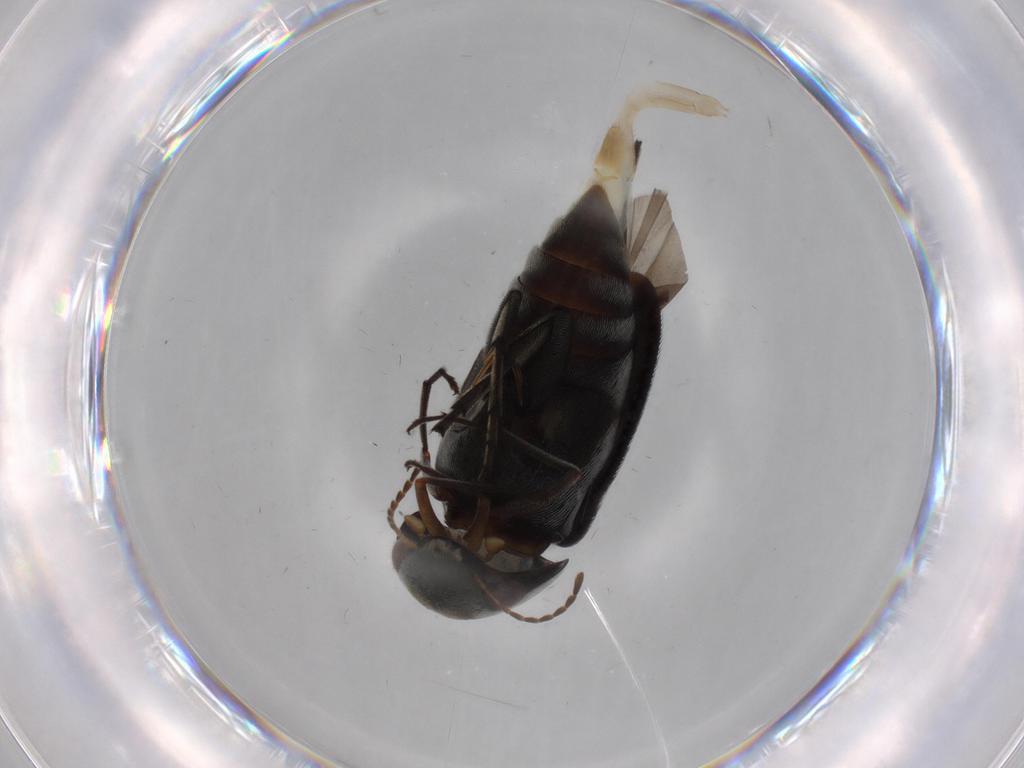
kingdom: Animalia
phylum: Arthropoda
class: Insecta
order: Coleoptera
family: Mordellidae
